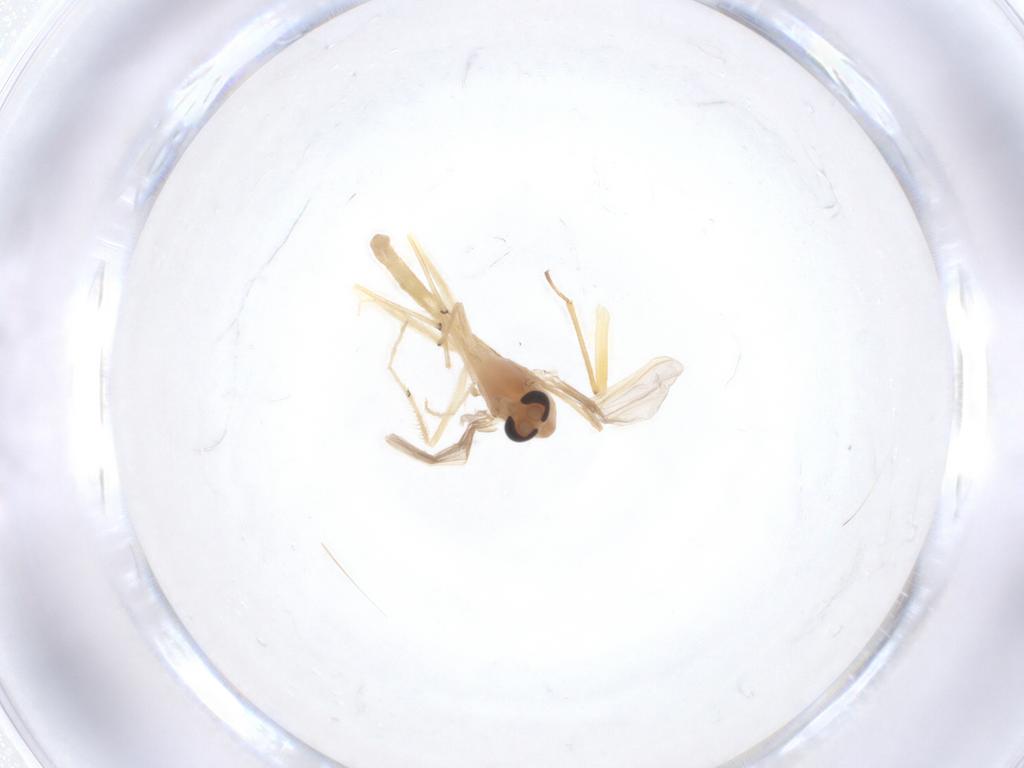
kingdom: Animalia
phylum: Arthropoda
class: Insecta
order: Diptera
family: Chironomidae
